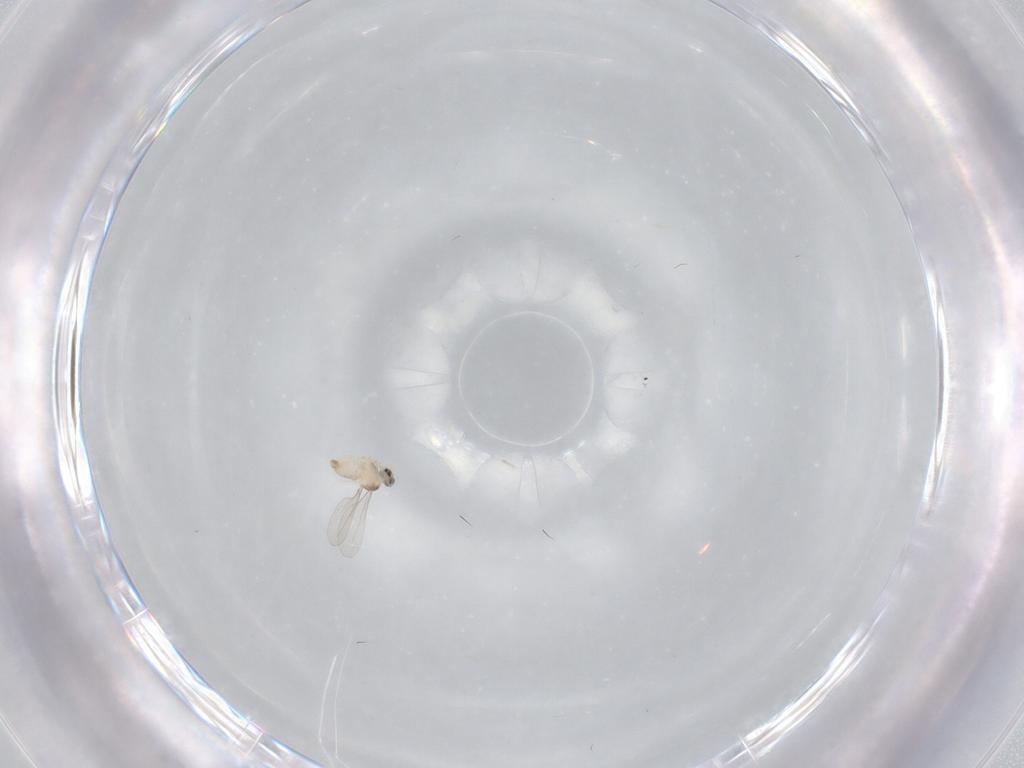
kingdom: Animalia
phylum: Arthropoda
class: Insecta
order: Diptera
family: Cecidomyiidae
